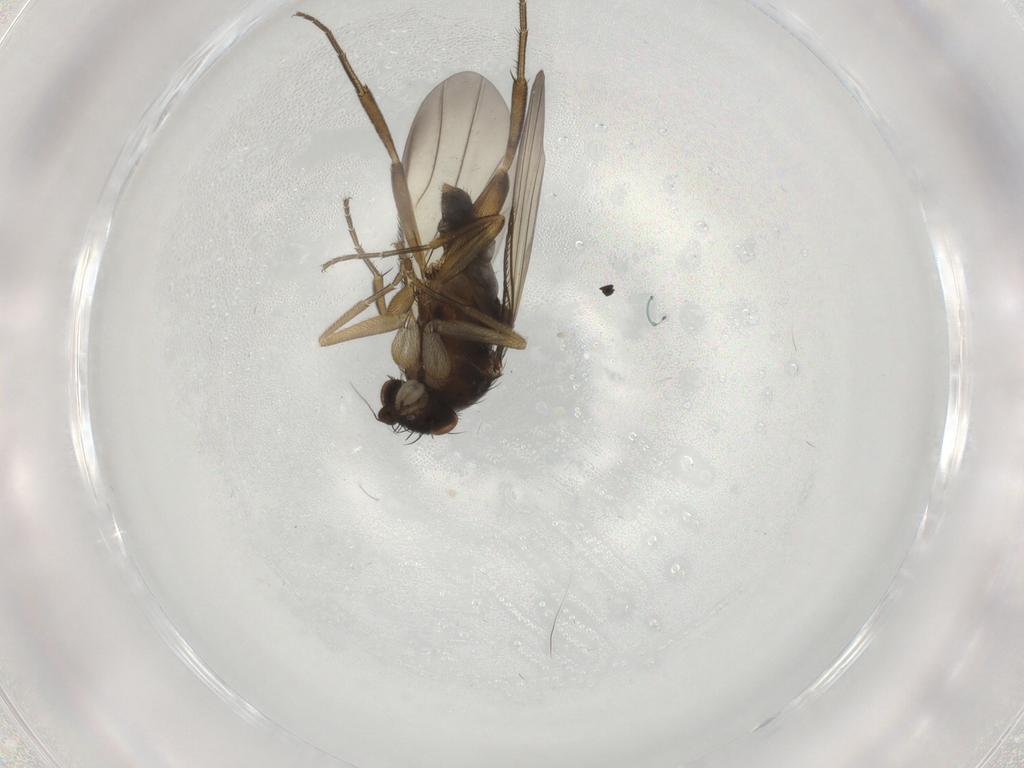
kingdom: Animalia
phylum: Arthropoda
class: Insecta
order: Diptera
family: Phoridae
